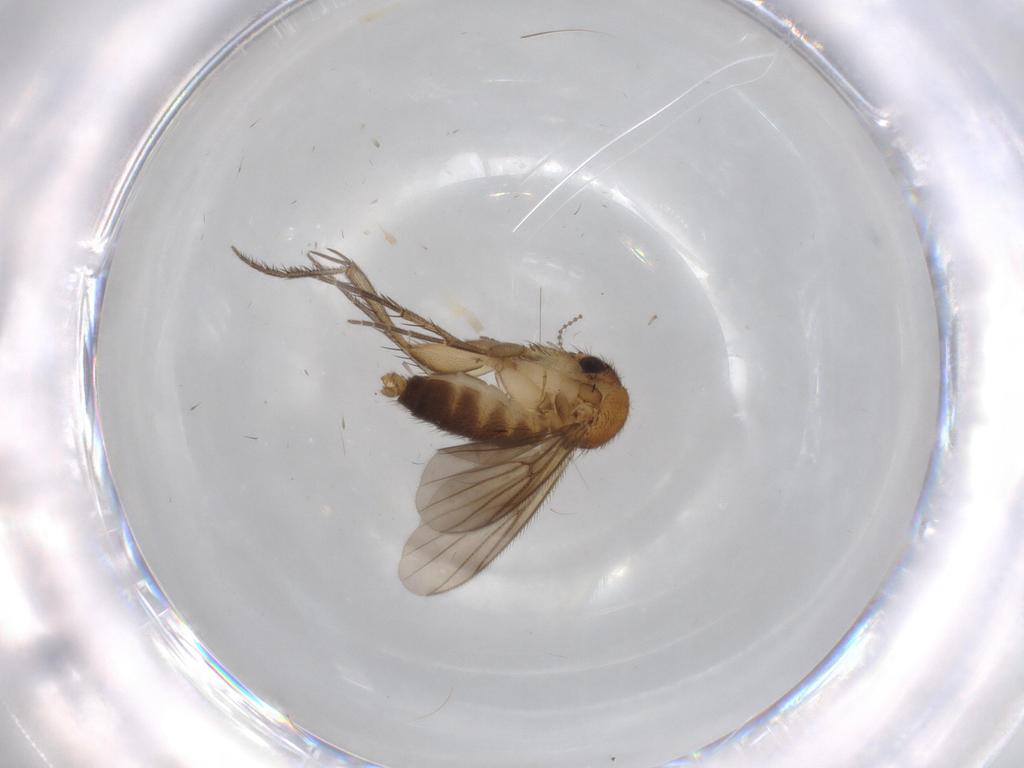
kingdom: Animalia
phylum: Arthropoda
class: Insecta
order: Diptera
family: Mycetophilidae
